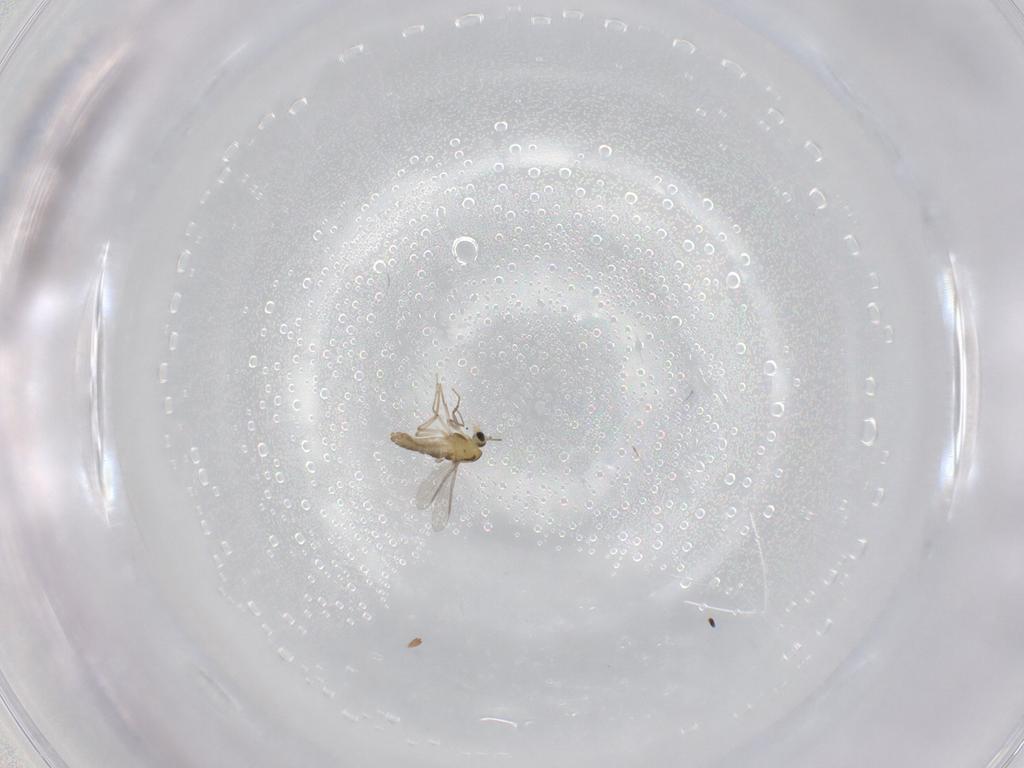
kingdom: Animalia
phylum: Arthropoda
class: Insecta
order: Diptera
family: Chironomidae
